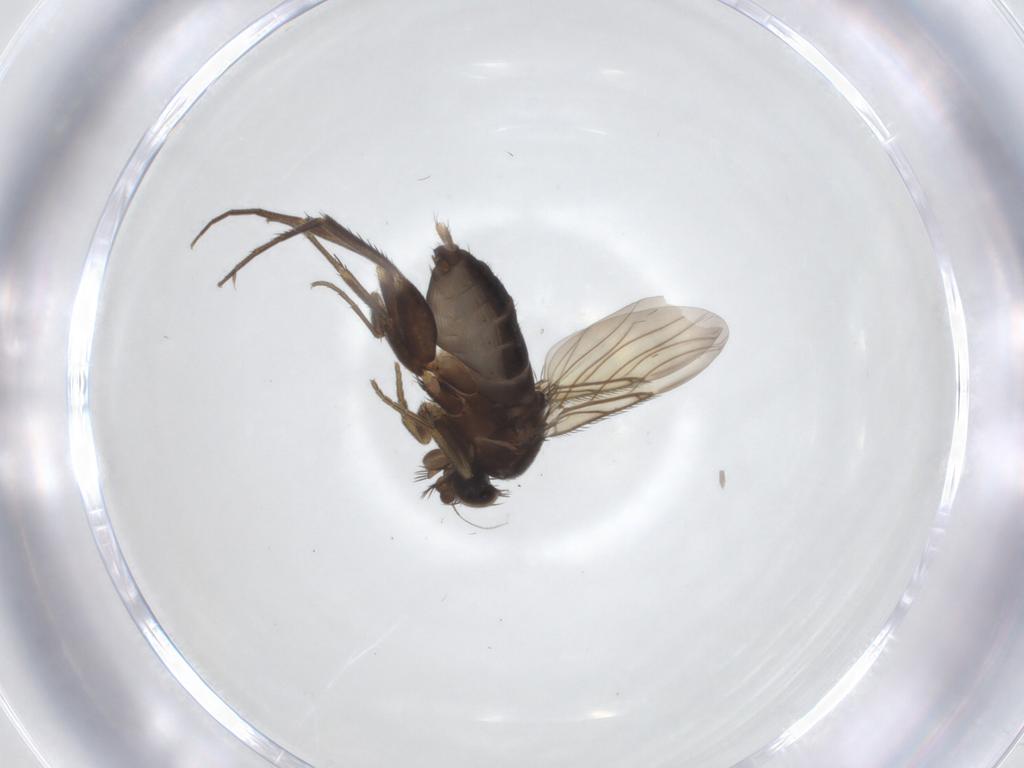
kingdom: Animalia
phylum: Arthropoda
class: Insecta
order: Diptera
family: Phoridae
